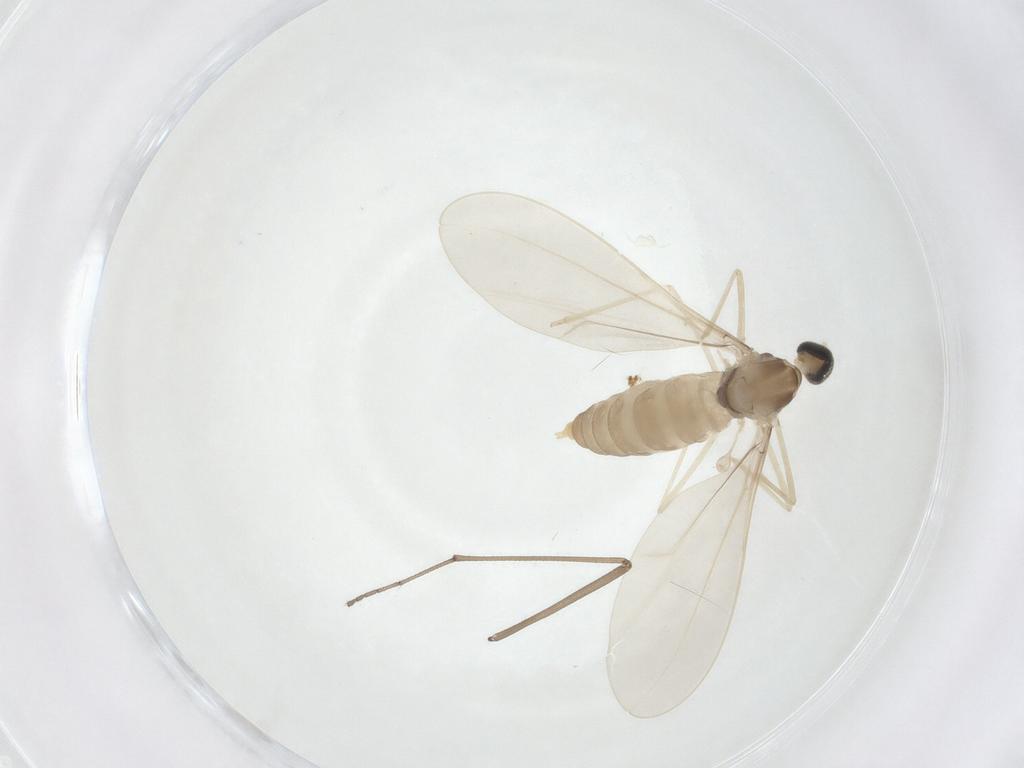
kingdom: Animalia
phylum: Arthropoda
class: Insecta
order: Diptera
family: Limoniidae
